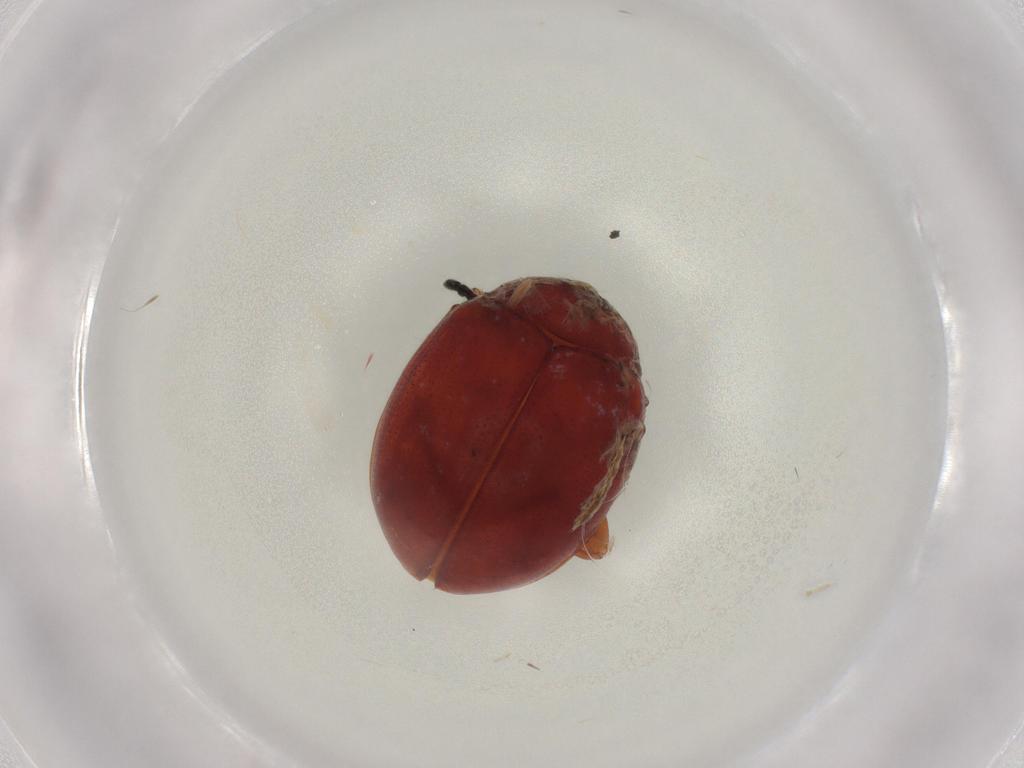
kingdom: Animalia
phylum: Arthropoda
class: Insecta
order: Coleoptera
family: Chrysomelidae
